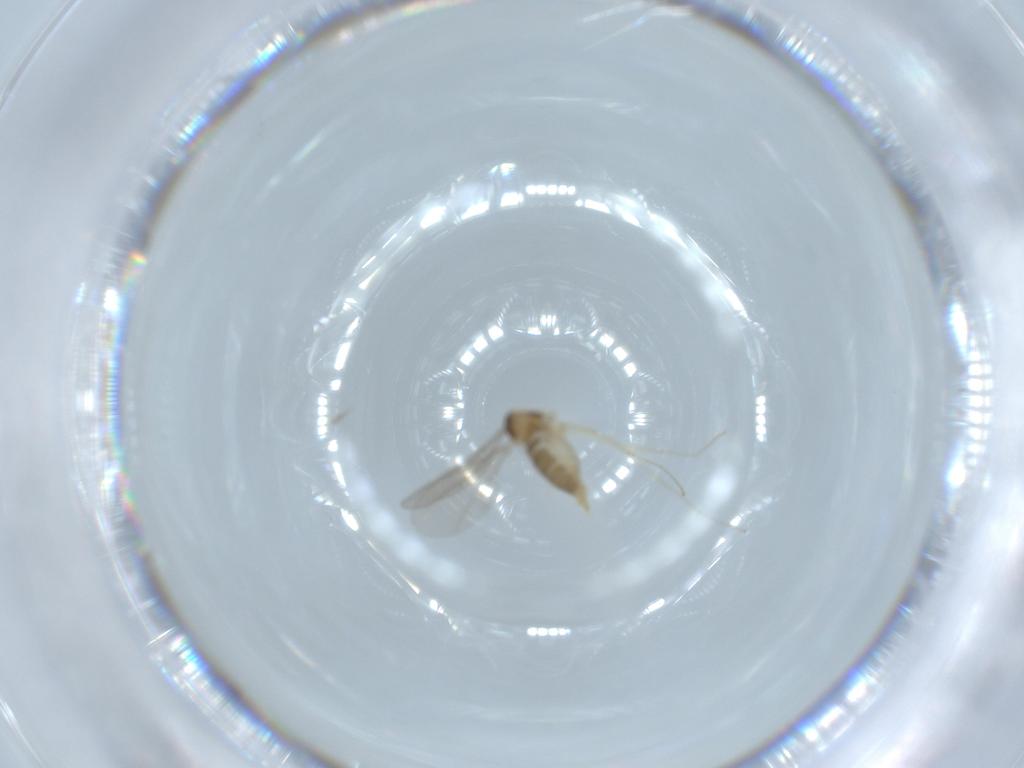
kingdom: Animalia
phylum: Arthropoda
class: Insecta
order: Diptera
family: Cecidomyiidae
